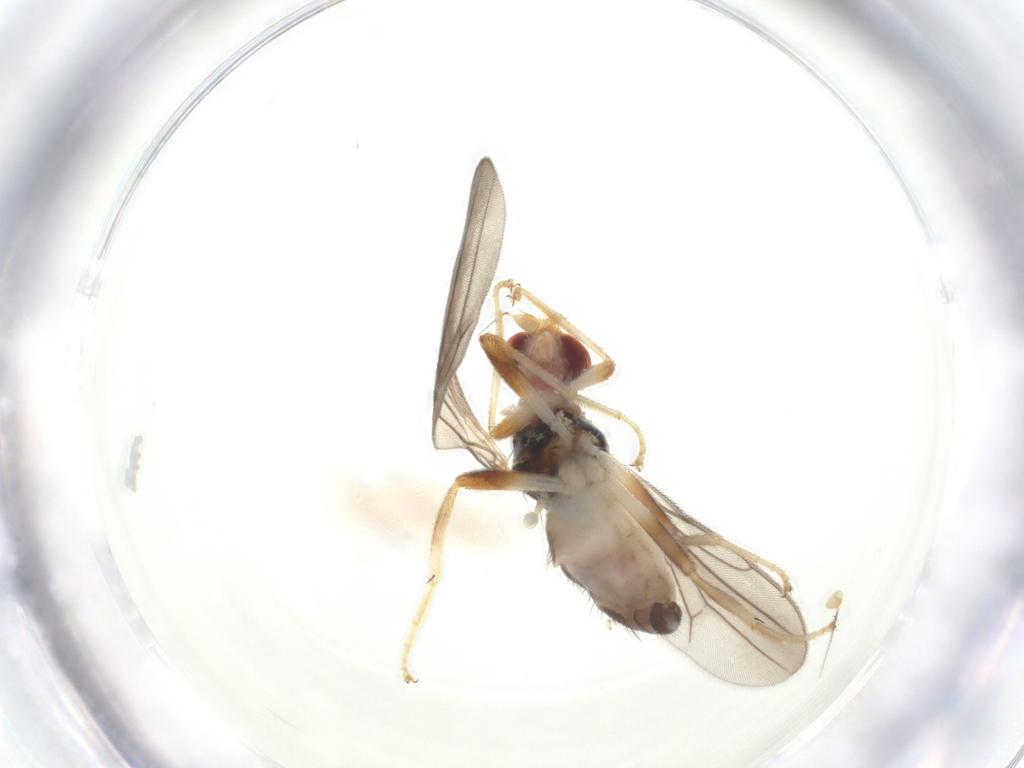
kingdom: Animalia
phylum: Arthropoda
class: Insecta
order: Diptera
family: Chloropidae
